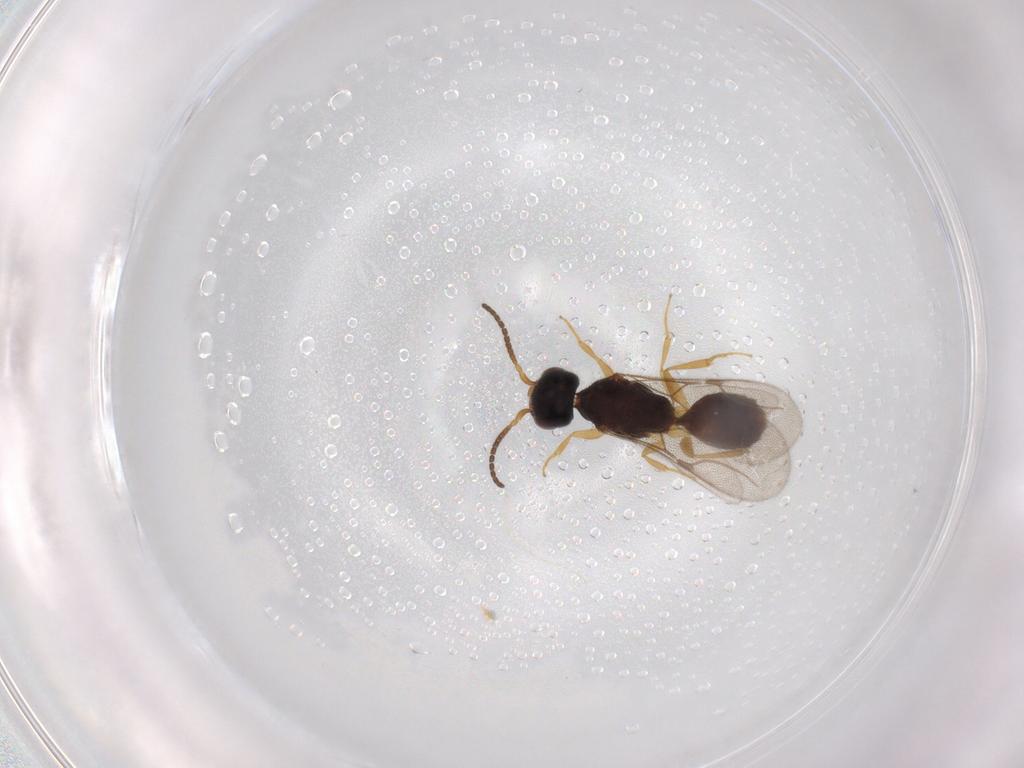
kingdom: Animalia
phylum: Arthropoda
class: Insecta
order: Hymenoptera
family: Bethylidae
